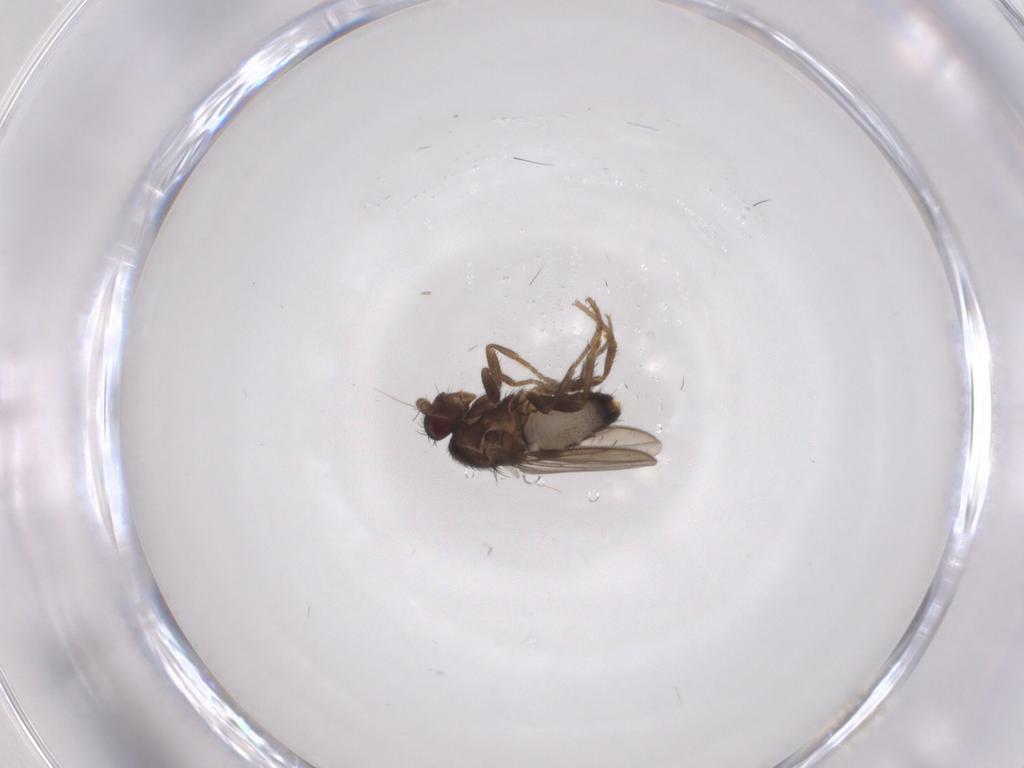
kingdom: Animalia
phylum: Arthropoda
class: Insecta
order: Diptera
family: Sphaeroceridae
